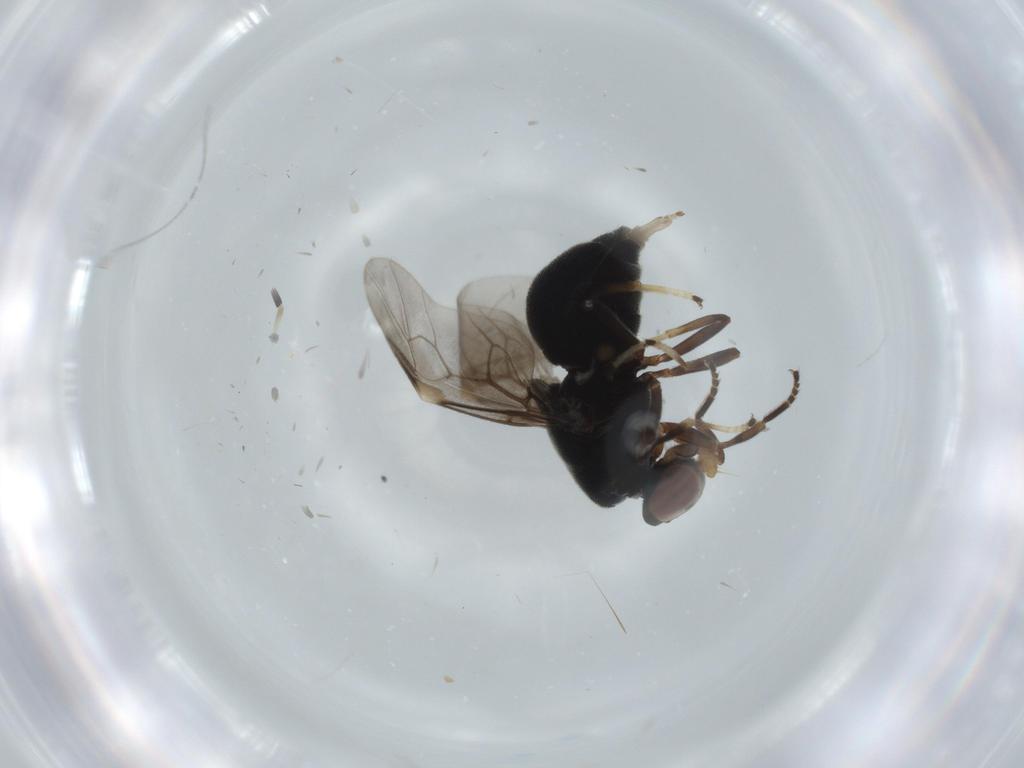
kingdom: Animalia
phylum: Arthropoda
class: Insecta
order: Diptera
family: Stratiomyidae
